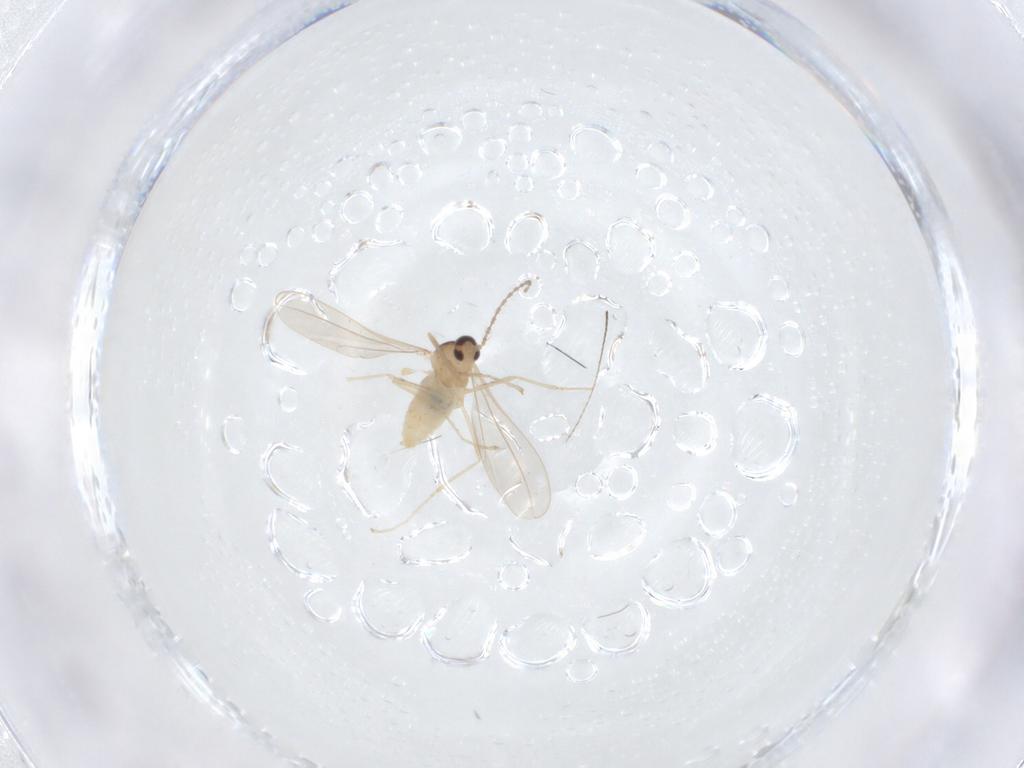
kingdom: Animalia
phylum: Arthropoda
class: Insecta
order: Diptera
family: Cecidomyiidae
